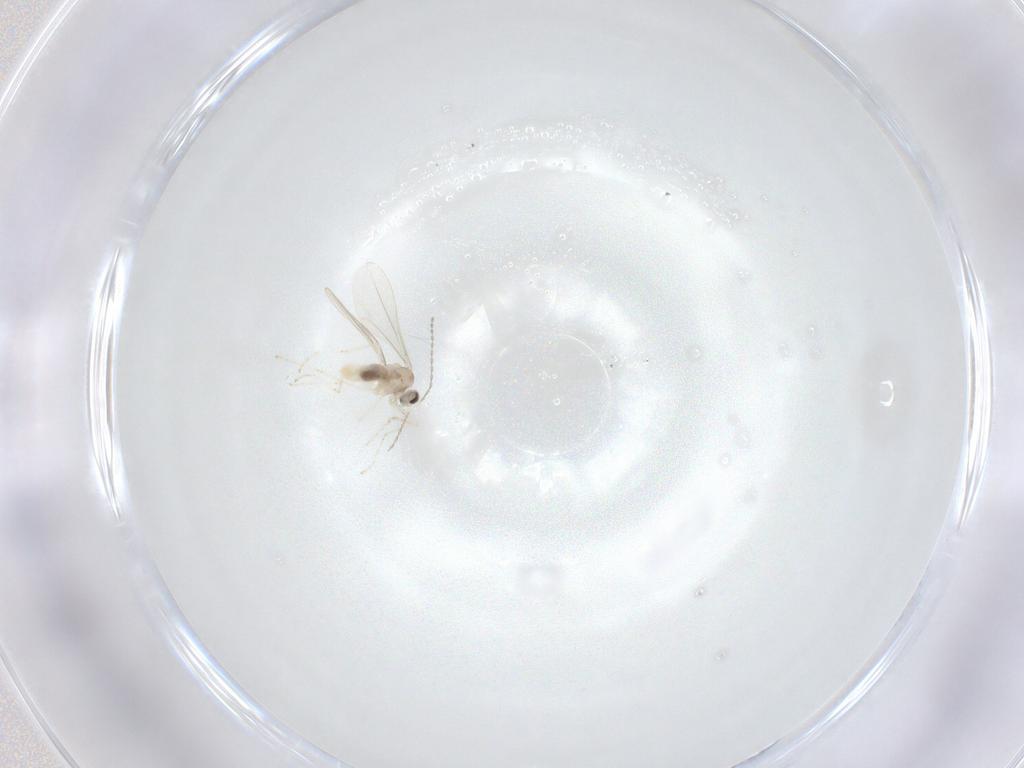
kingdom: Animalia
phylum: Arthropoda
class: Insecta
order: Diptera
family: Cecidomyiidae
